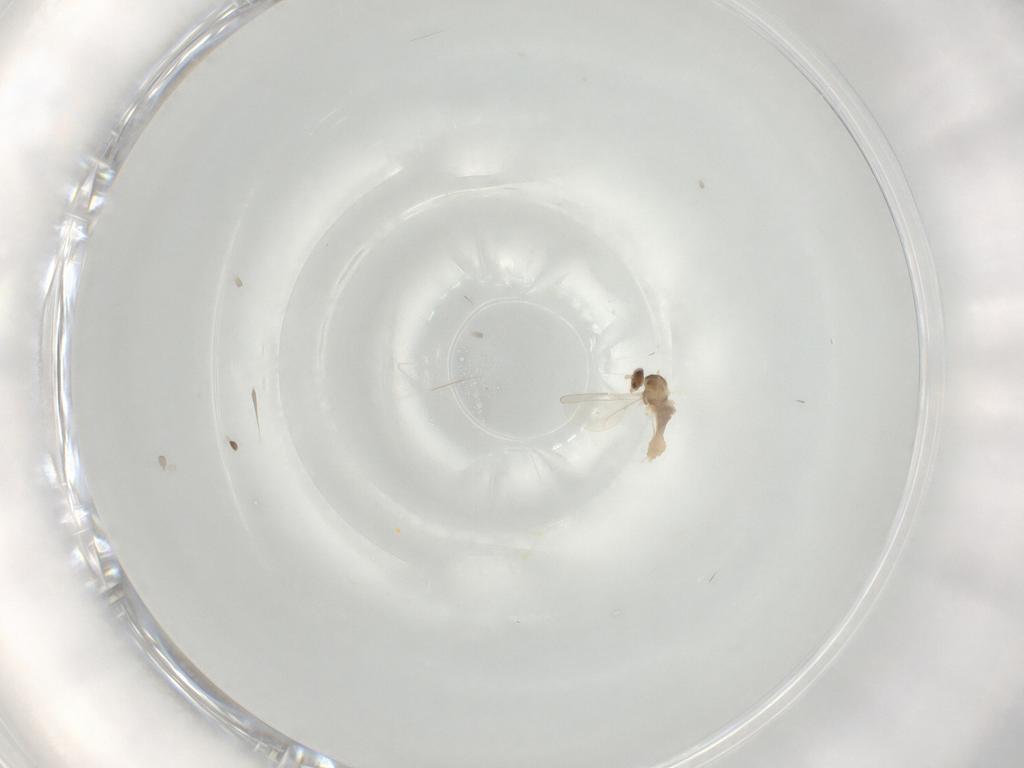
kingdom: Animalia
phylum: Arthropoda
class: Insecta
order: Diptera
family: Muscidae
